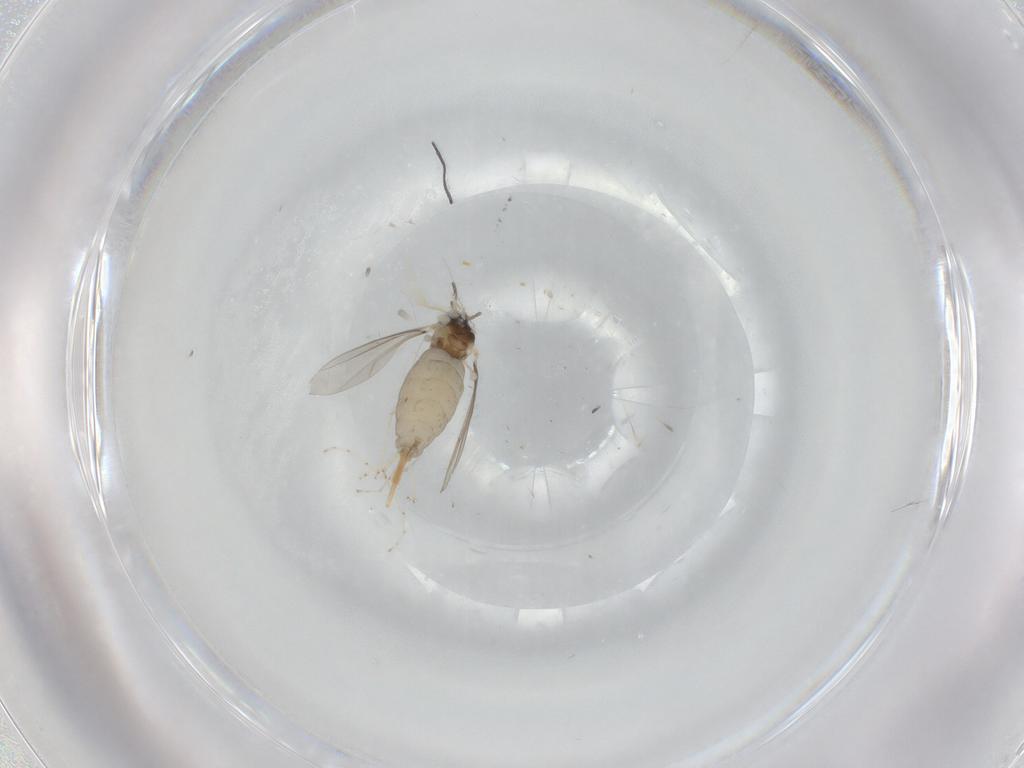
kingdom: Animalia
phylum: Arthropoda
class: Insecta
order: Diptera
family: Cecidomyiidae
